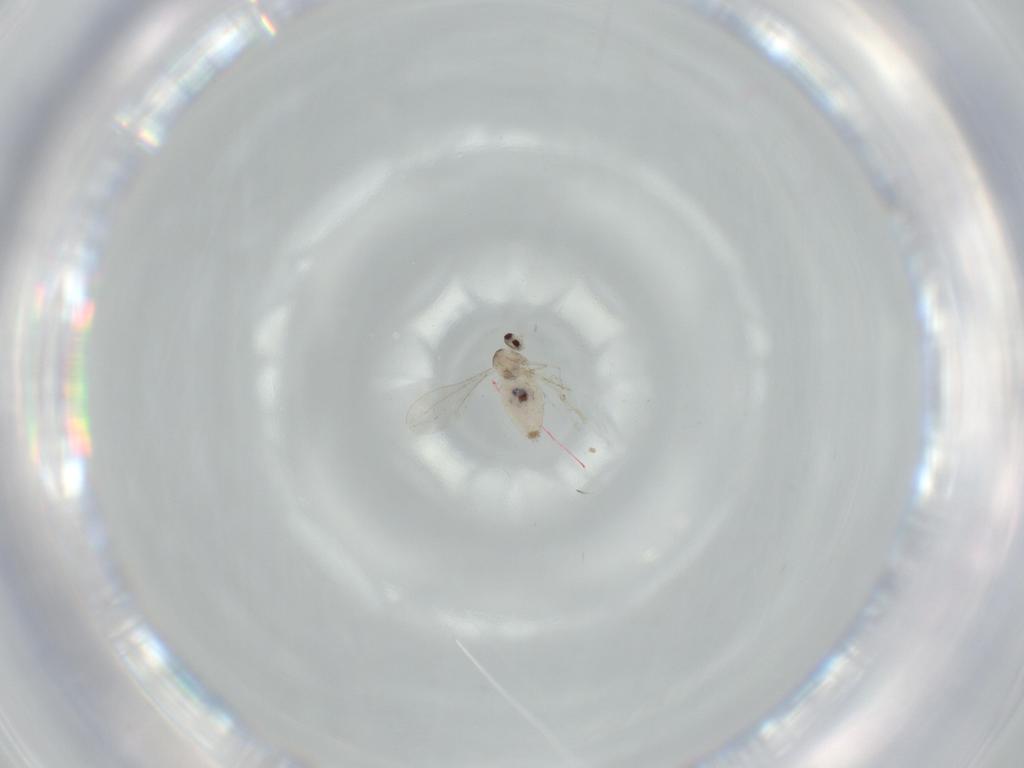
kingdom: Animalia
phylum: Arthropoda
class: Insecta
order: Diptera
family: Cecidomyiidae
